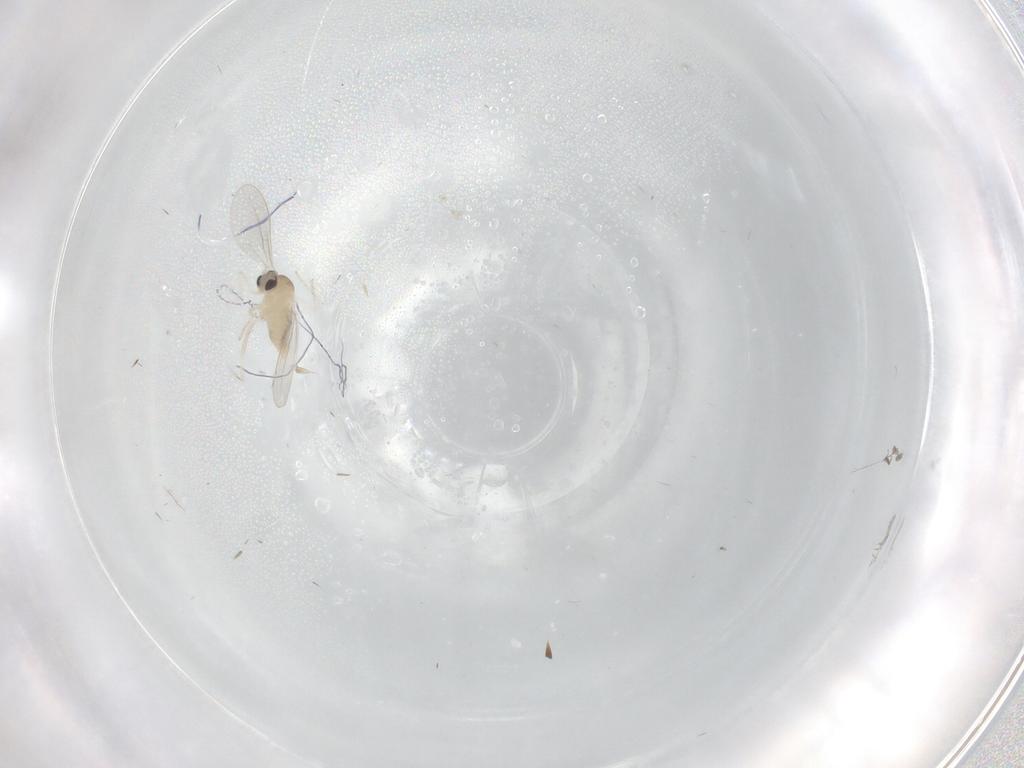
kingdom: Animalia
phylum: Arthropoda
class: Insecta
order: Diptera
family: Cecidomyiidae
